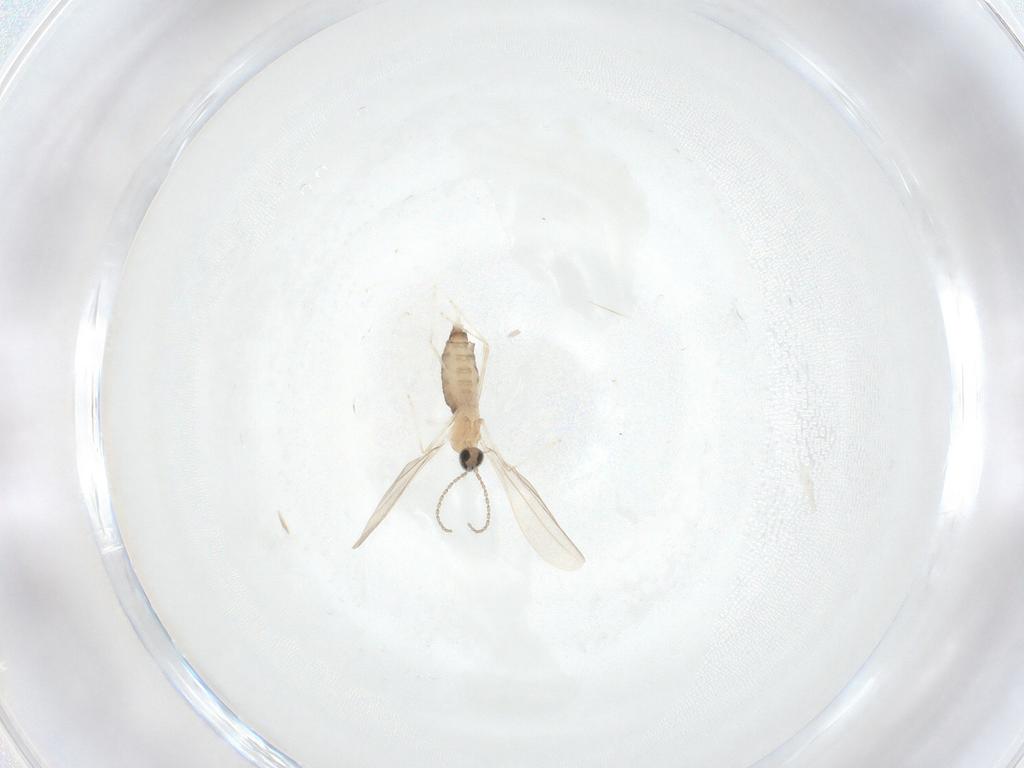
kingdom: Animalia
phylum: Arthropoda
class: Insecta
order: Diptera
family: Cecidomyiidae
